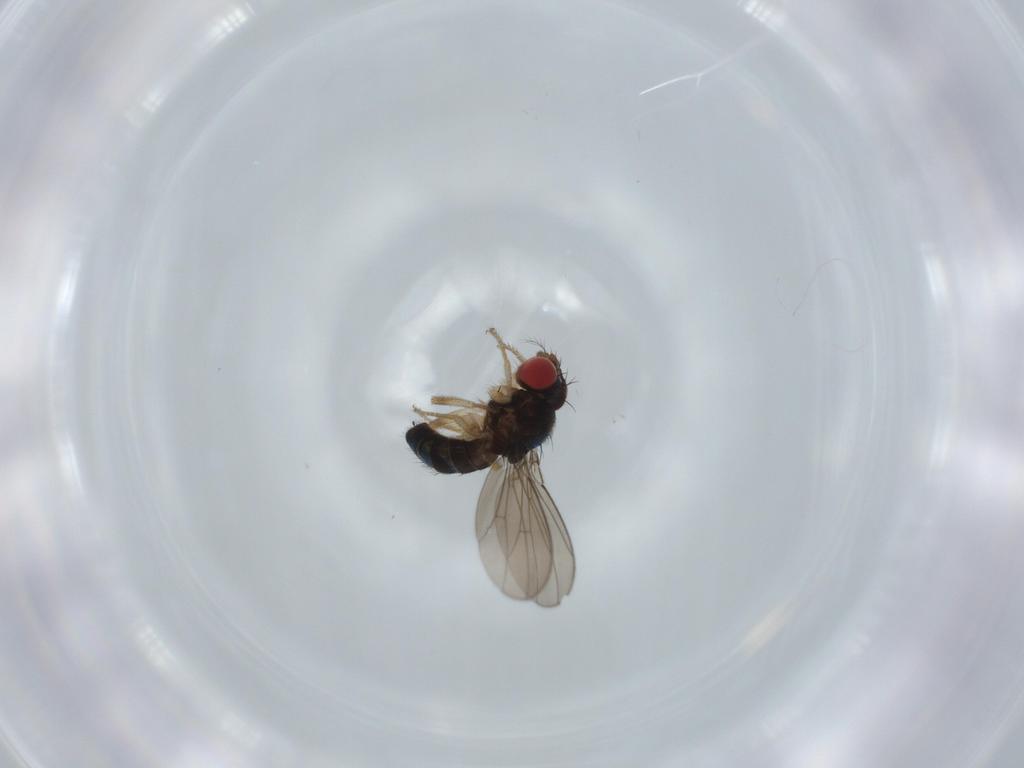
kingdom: Animalia
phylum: Arthropoda
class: Insecta
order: Diptera
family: Drosophilidae
